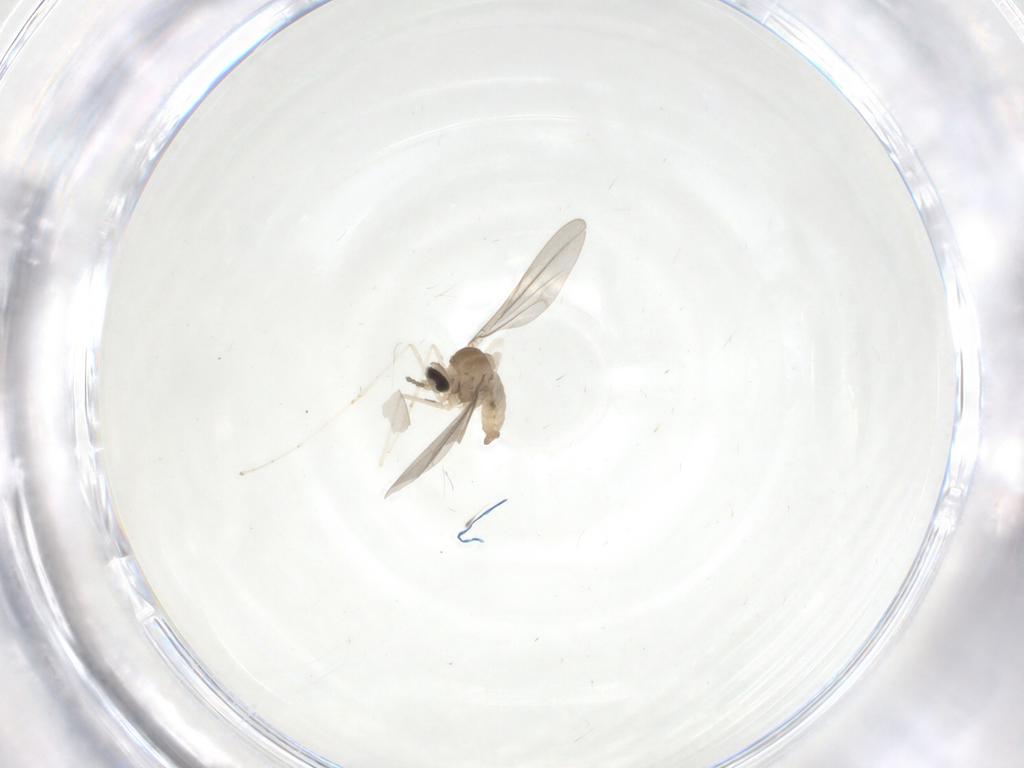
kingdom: Animalia
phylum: Arthropoda
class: Insecta
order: Diptera
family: Cecidomyiidae
